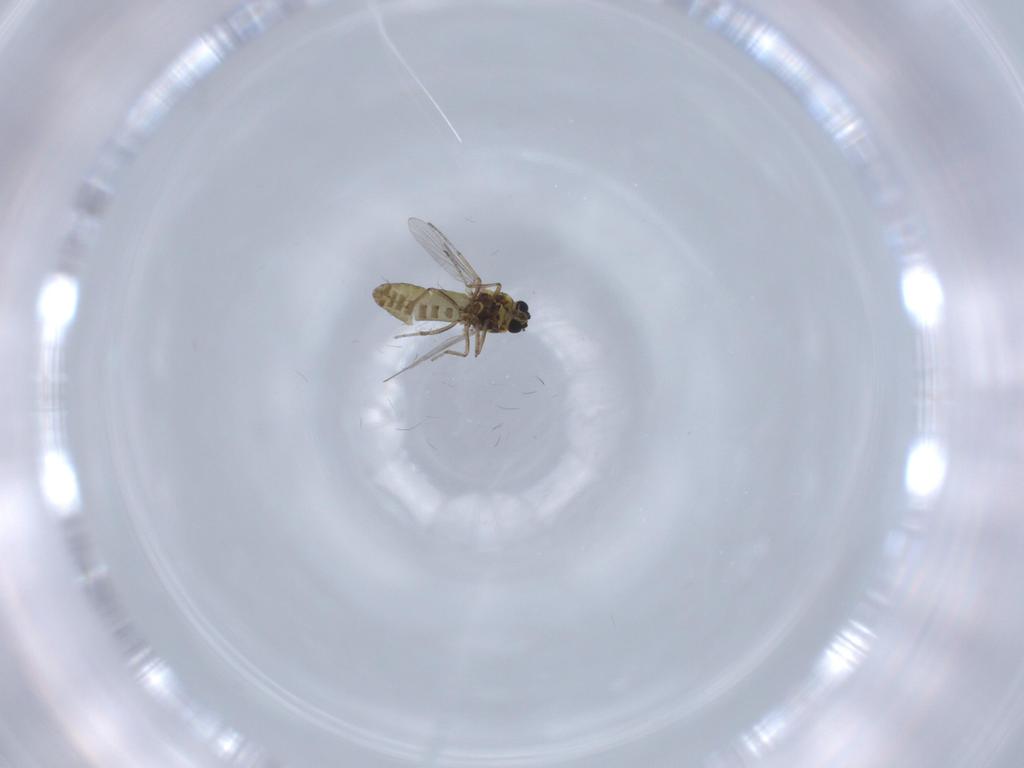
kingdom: Animalia
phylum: Arthropoda
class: Insecta
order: Diptera
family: Ceratopogonidae
